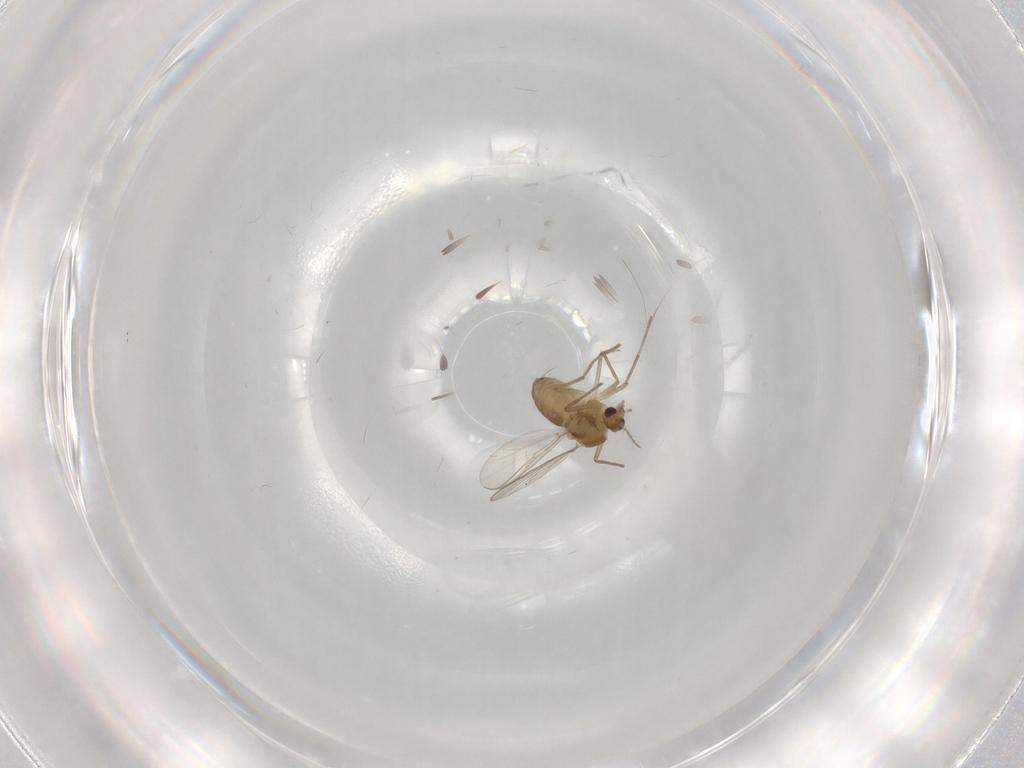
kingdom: Animalia
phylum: Arthropoda
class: Insecta
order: Diptera
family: Chironomidae
